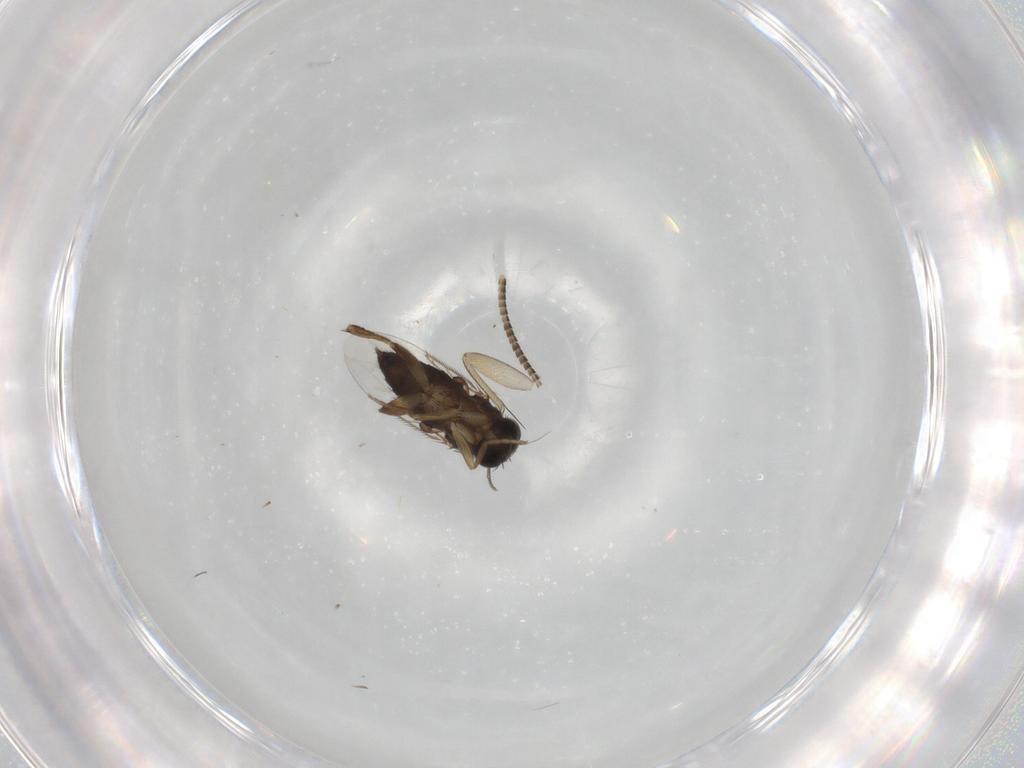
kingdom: Animalia
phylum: Arthropoda
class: Insecta
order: Diptera
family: Phoridae
